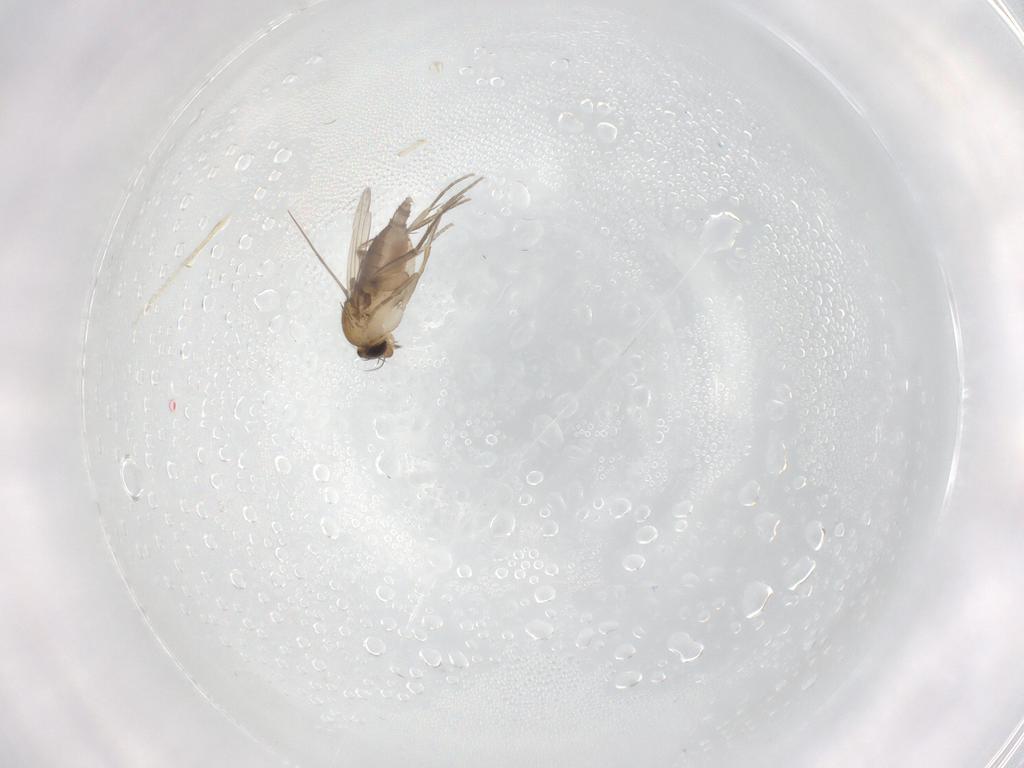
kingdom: Animalia
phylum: Arthropoda
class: Insecta
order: Diptera
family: Phoridae
